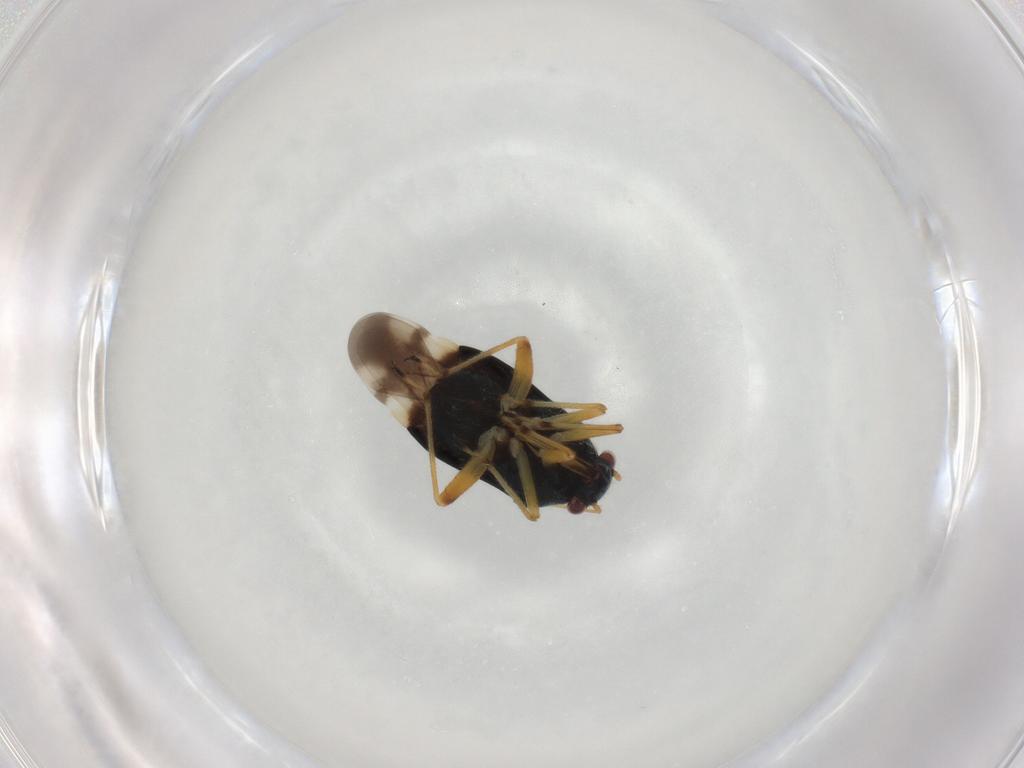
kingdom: Animalia
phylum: Arthropoda
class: Insecta
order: Hemiptera
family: Miridae
